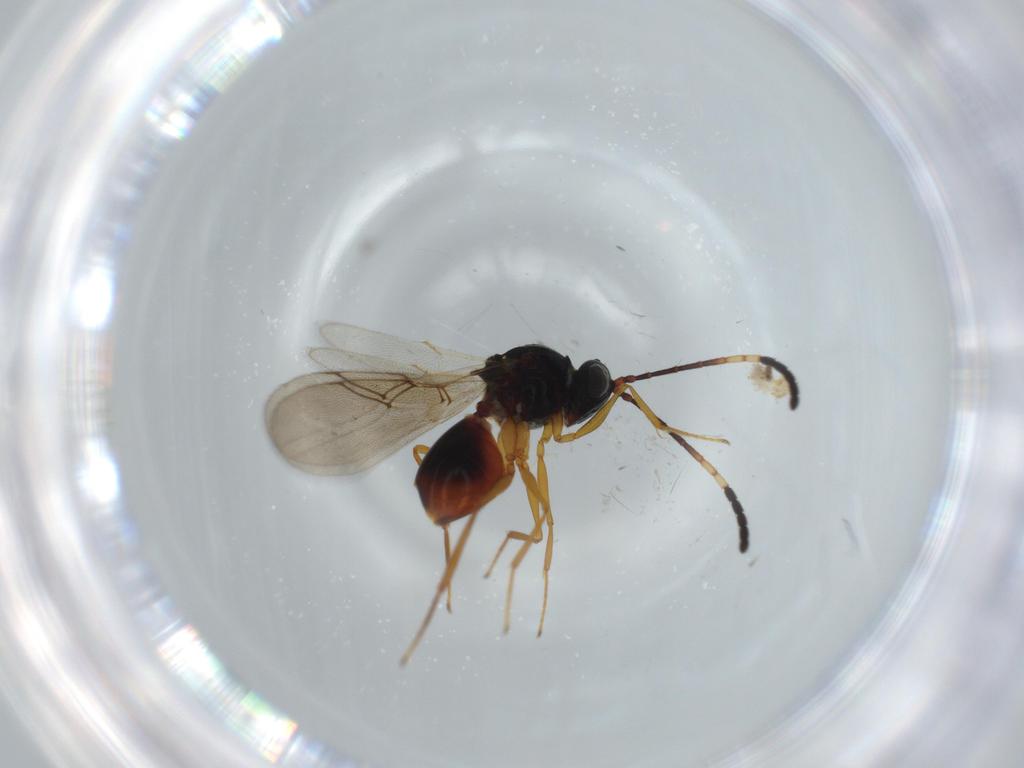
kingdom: Animalia
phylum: Arthropoda
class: Insecta
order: Hymenoptera
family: Figitidae
